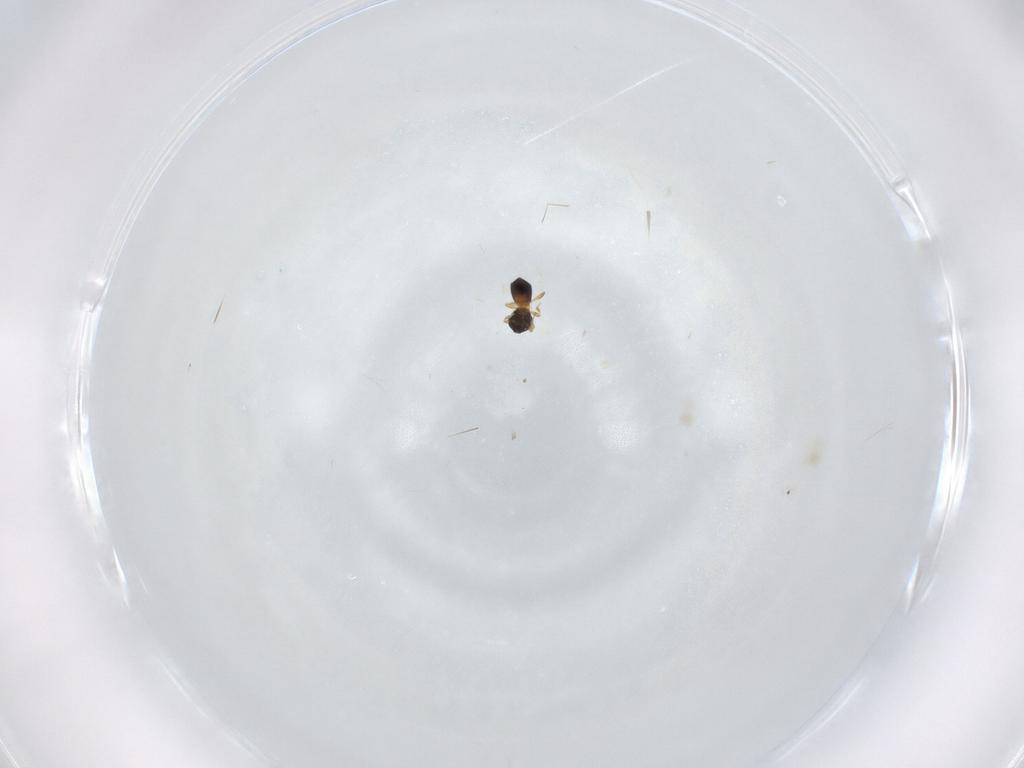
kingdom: Animalia
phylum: Arthropoda
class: Insecta
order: Hymenoptera
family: Platygastridae
